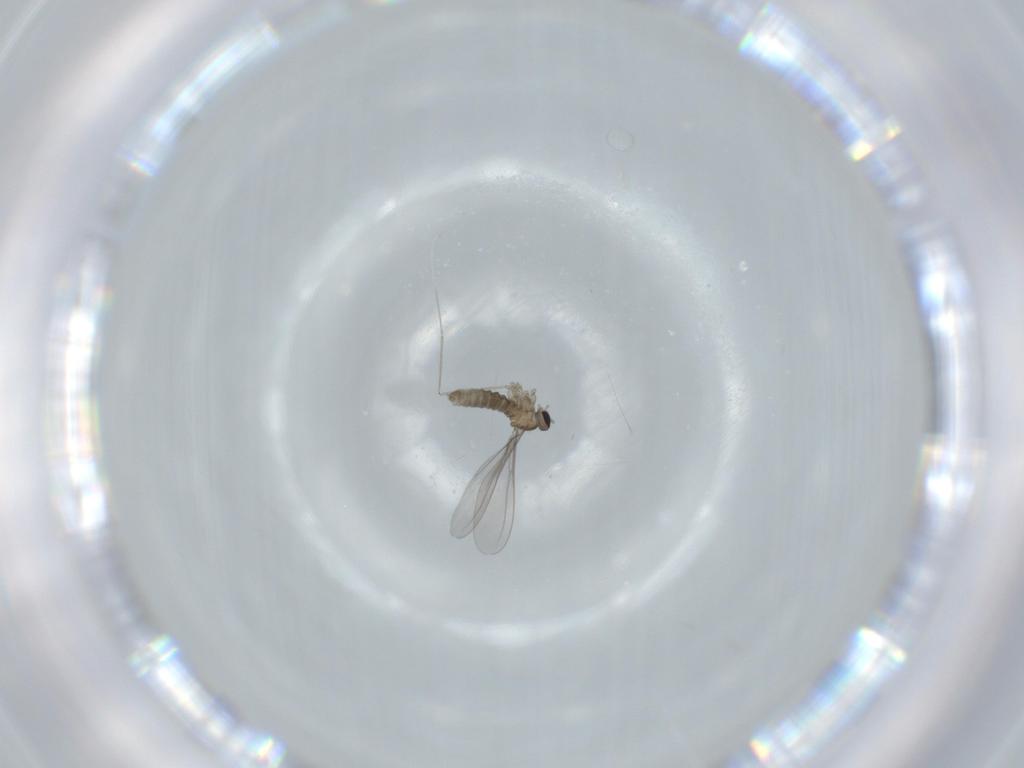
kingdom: Animalia
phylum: Arthropoda
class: Insecta
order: Diptera
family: Cecidomyiidae
